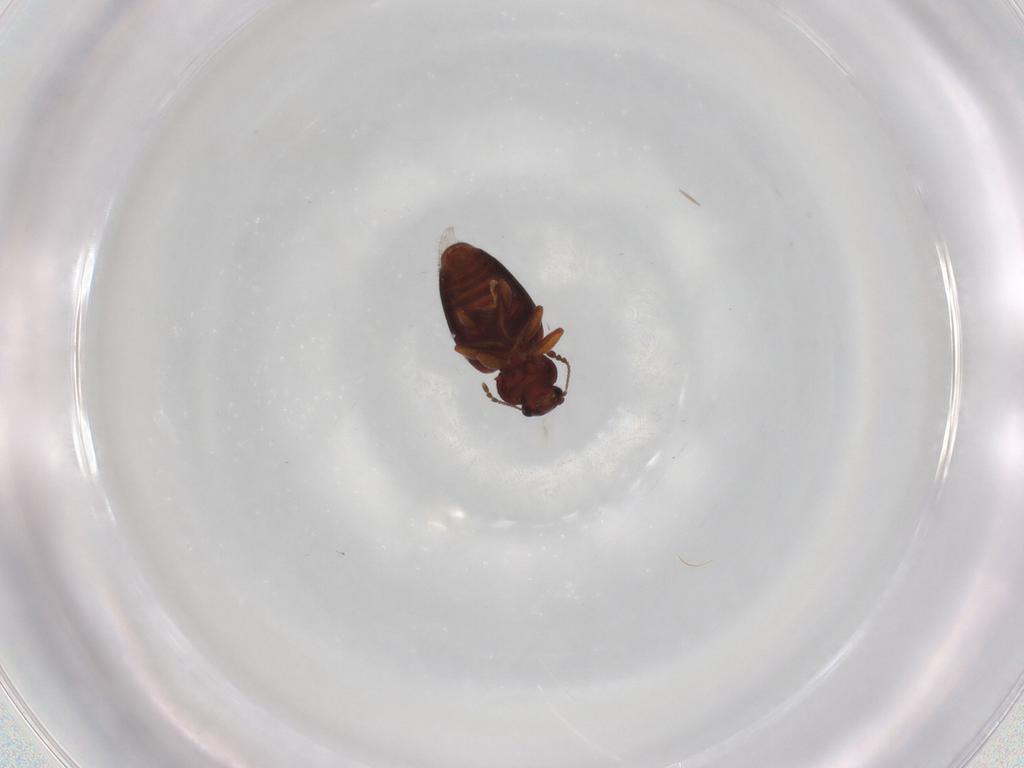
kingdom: Animalia
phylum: Arthropoda
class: Insecta
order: Coleoptera
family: Latridiidae
